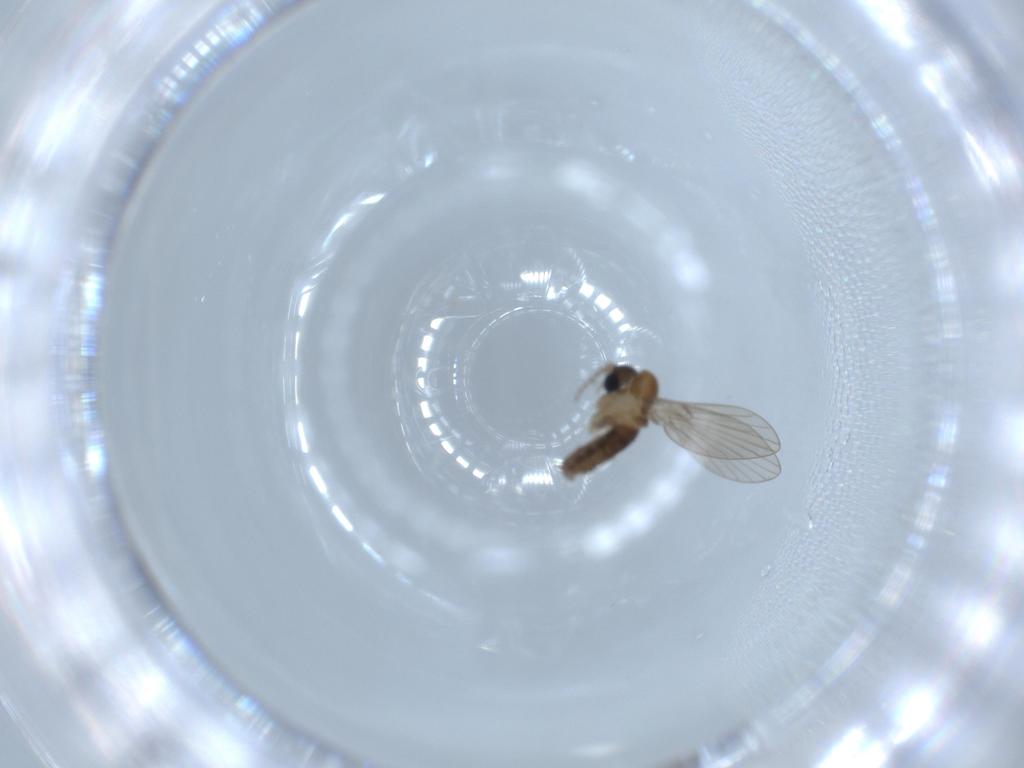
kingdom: Animalia
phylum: Arthropoda
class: Insecta
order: Diptera
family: Psychodidae
